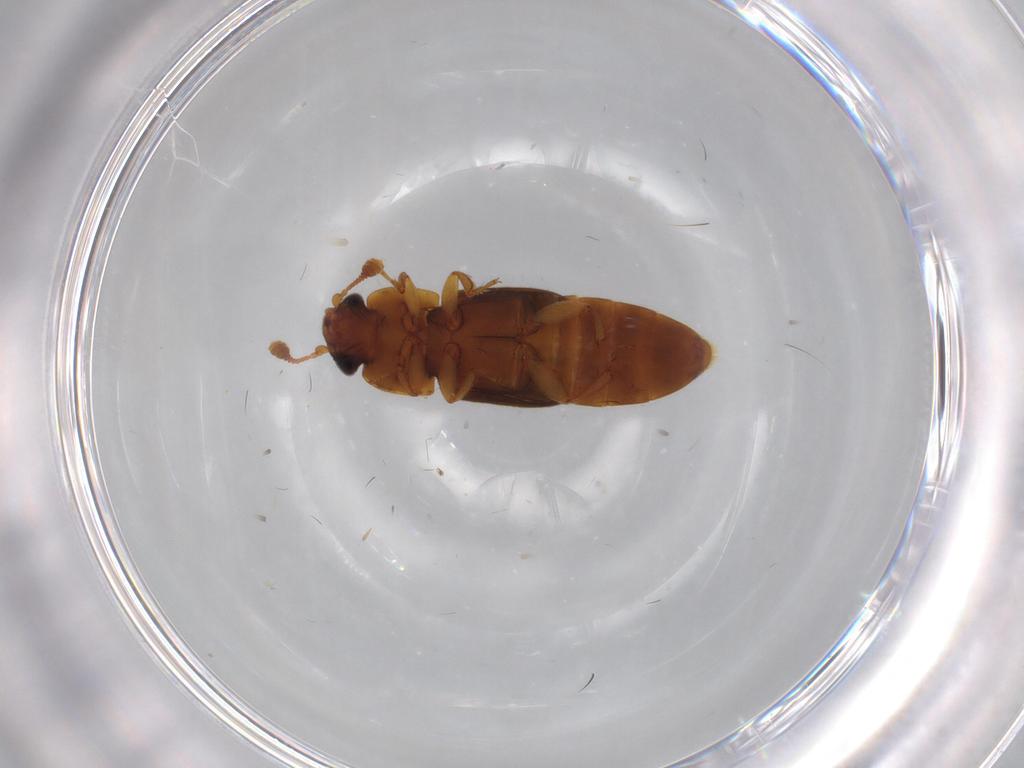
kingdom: Animalia
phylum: Arthropoda
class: Insecta
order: Coleoptera
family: Nitidulidae
